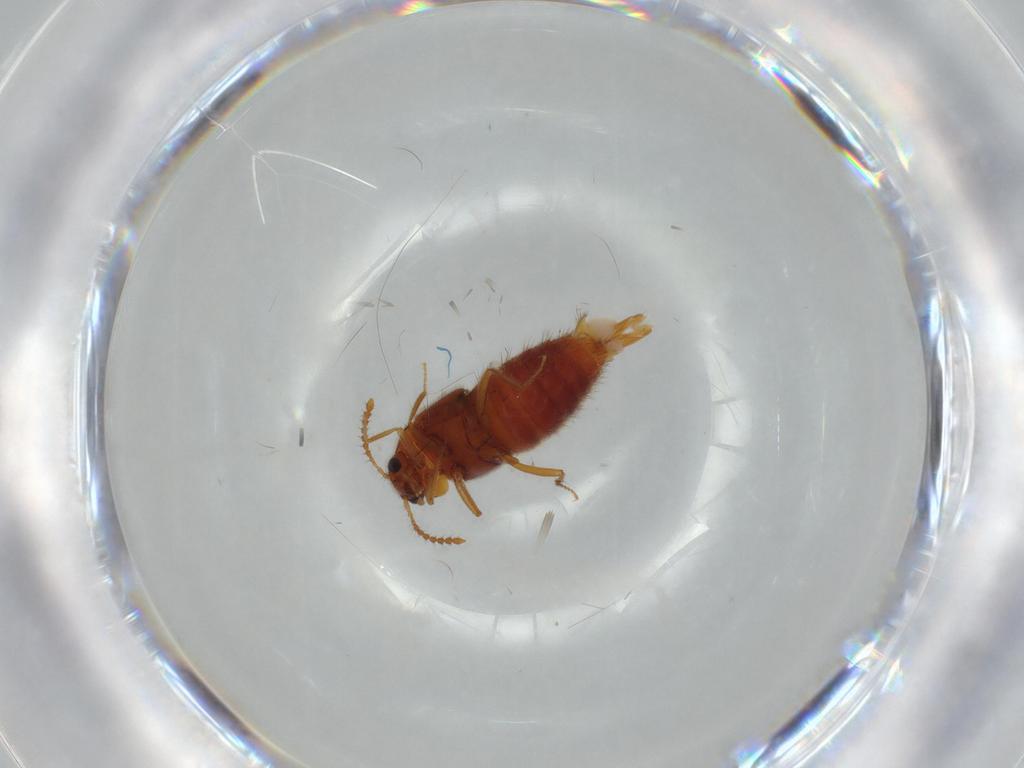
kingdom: Animalia
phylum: Arthropoda
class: Insecta
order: Coleoptera
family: Staphylinidae
